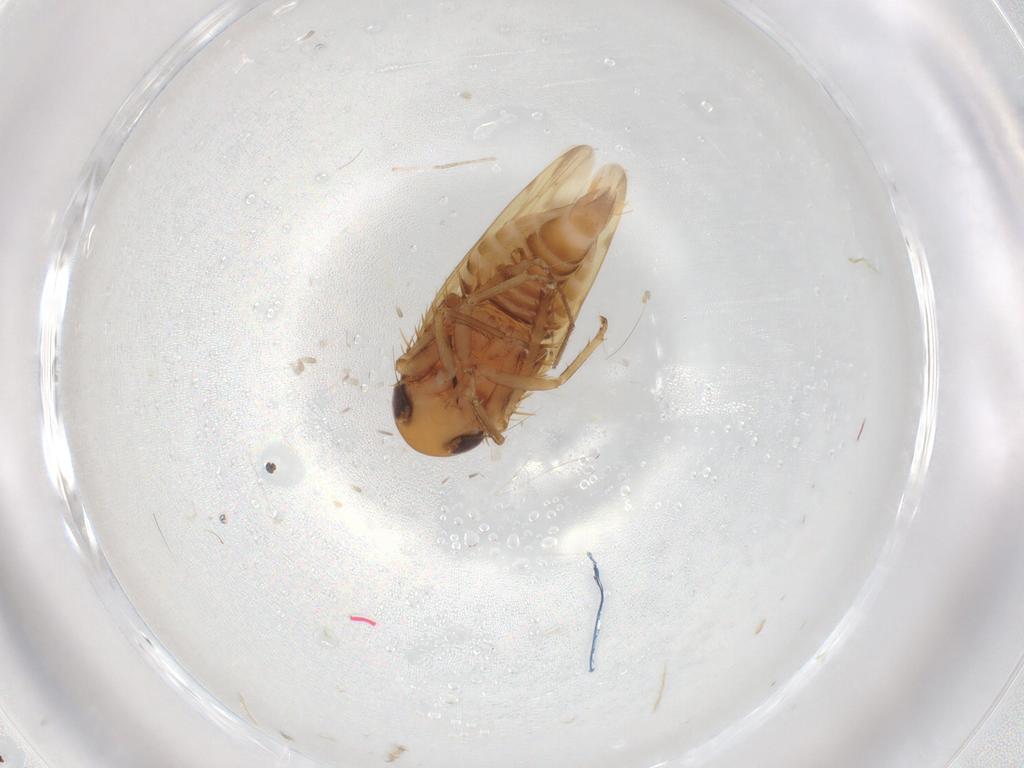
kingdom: Animalia
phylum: Arthropoda
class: Insecta
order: Hemiptera
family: Cicadellidae
